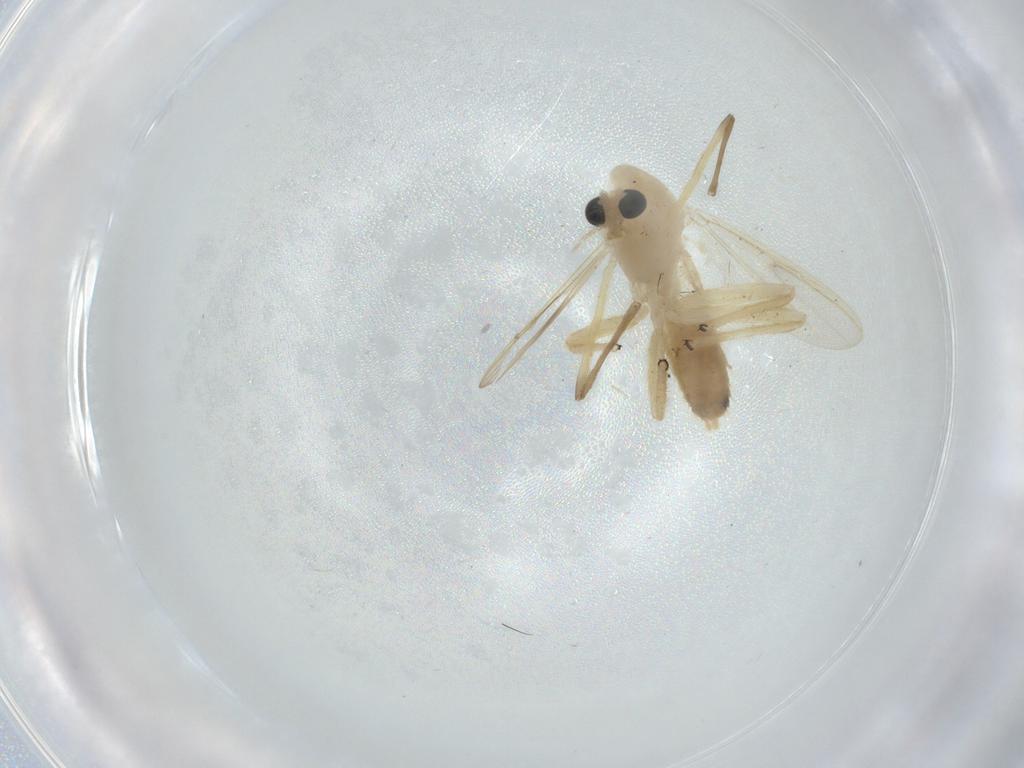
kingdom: Animalia
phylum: Arthropoda
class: Insecta
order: Diptera
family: Chironomidae
